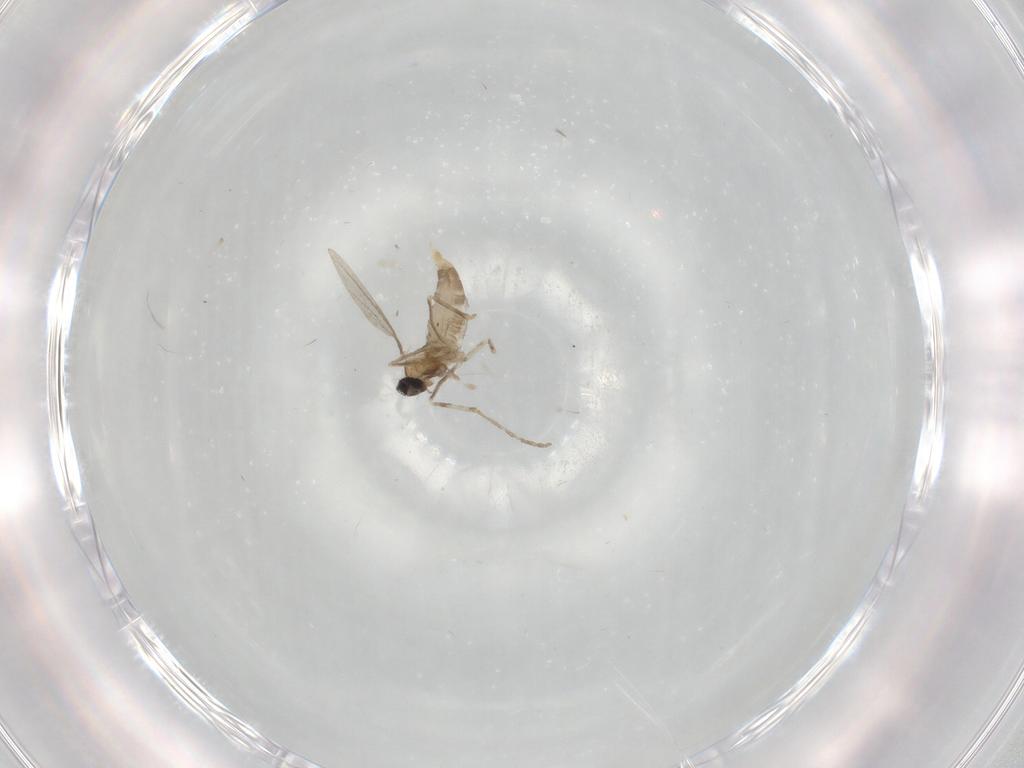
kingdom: Animalia
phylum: Arthropoda
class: Insecta
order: Diptera
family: Cecidomyiidae
